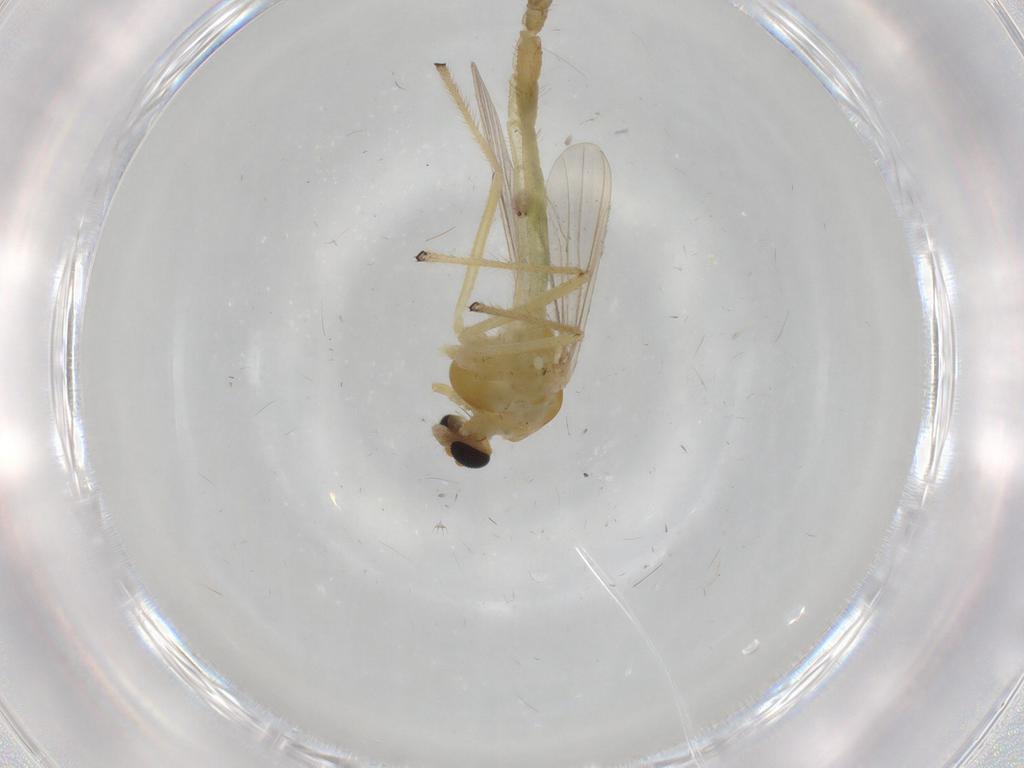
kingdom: Animalia
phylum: Arthropoda
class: Insecta
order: Diptera
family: Chironomidae
